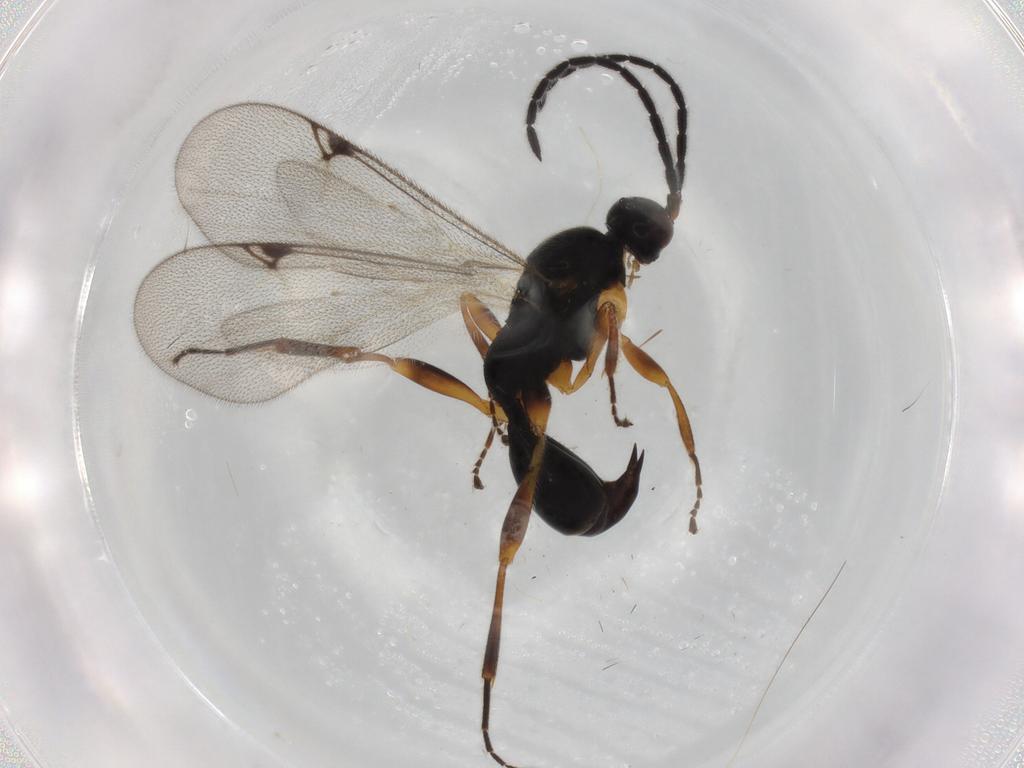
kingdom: Animalia
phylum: Arthropoda
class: Insecta
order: Hymenoptera
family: Proctotrupidae
